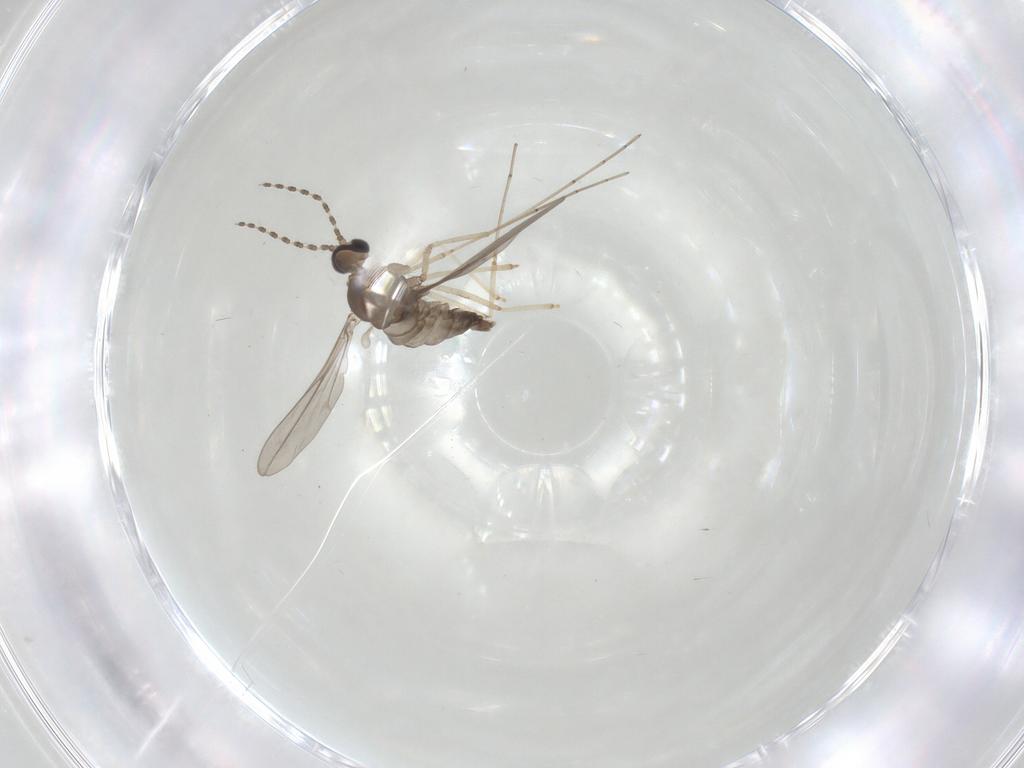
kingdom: Animalia
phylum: Arthropoda
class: Insecta
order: Diptera
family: Cecidomyiidae
